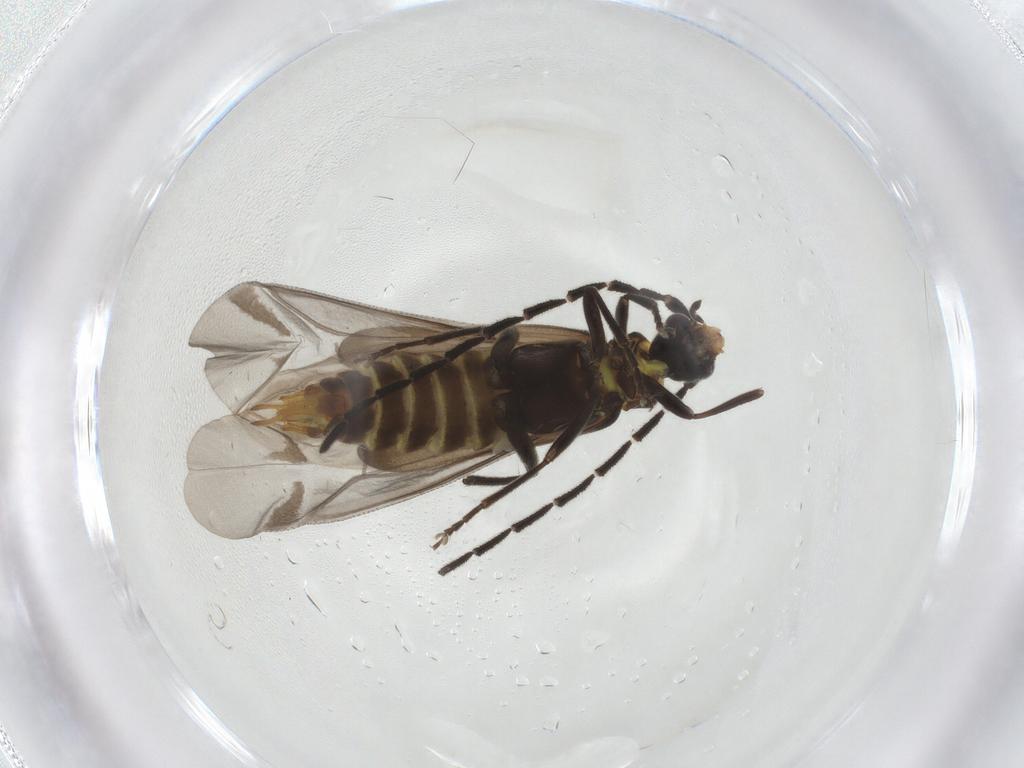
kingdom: Animalia
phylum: Arthropoda
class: Insecta
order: Coleoptera
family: Cantharidae
